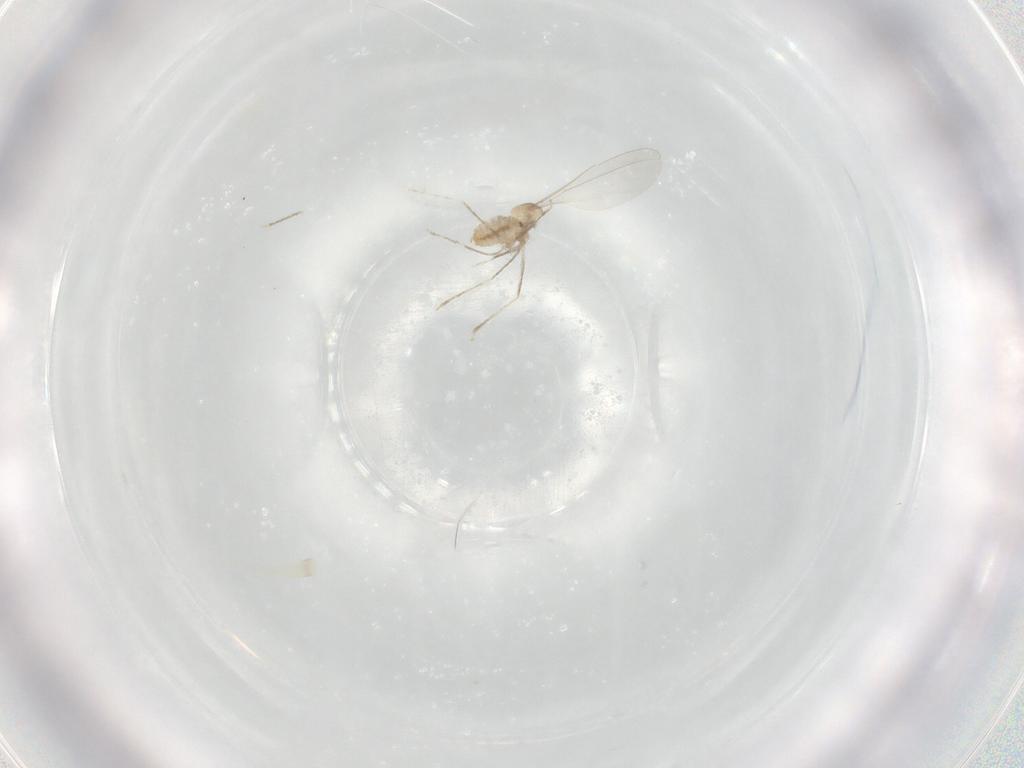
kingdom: Animalia
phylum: Arthropoda
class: Insecta
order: Diptera
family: Cecidomyiidae
